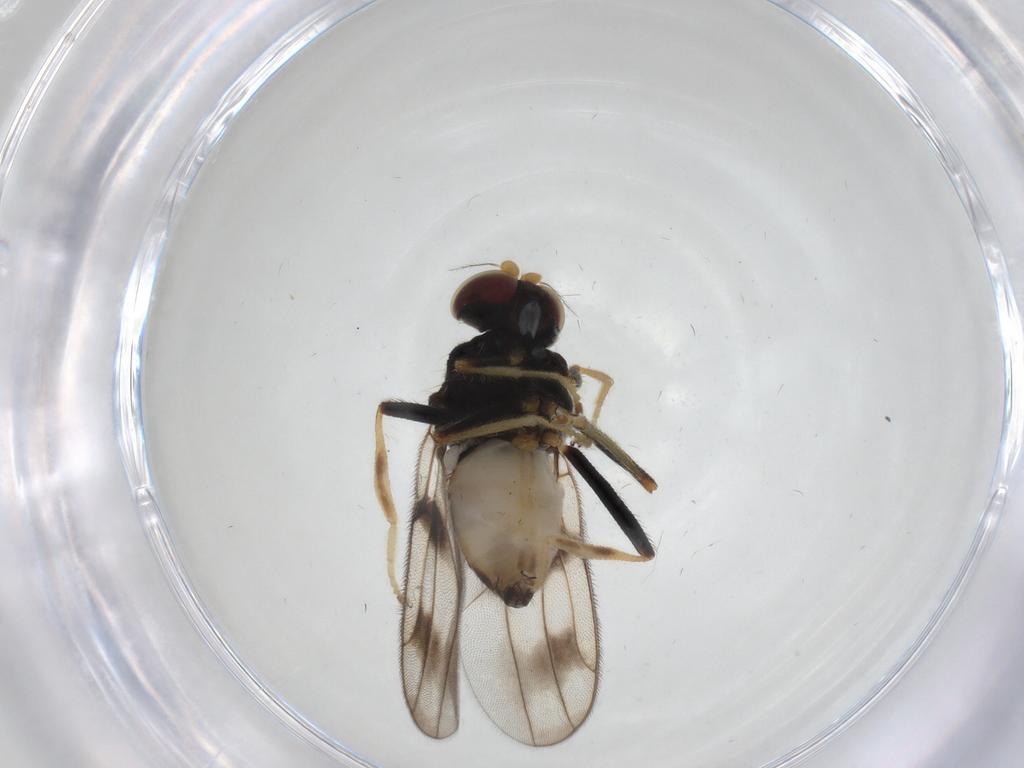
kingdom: Animalia
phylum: Arthropoda
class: Insecta
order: Diptera
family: Chloropidae
